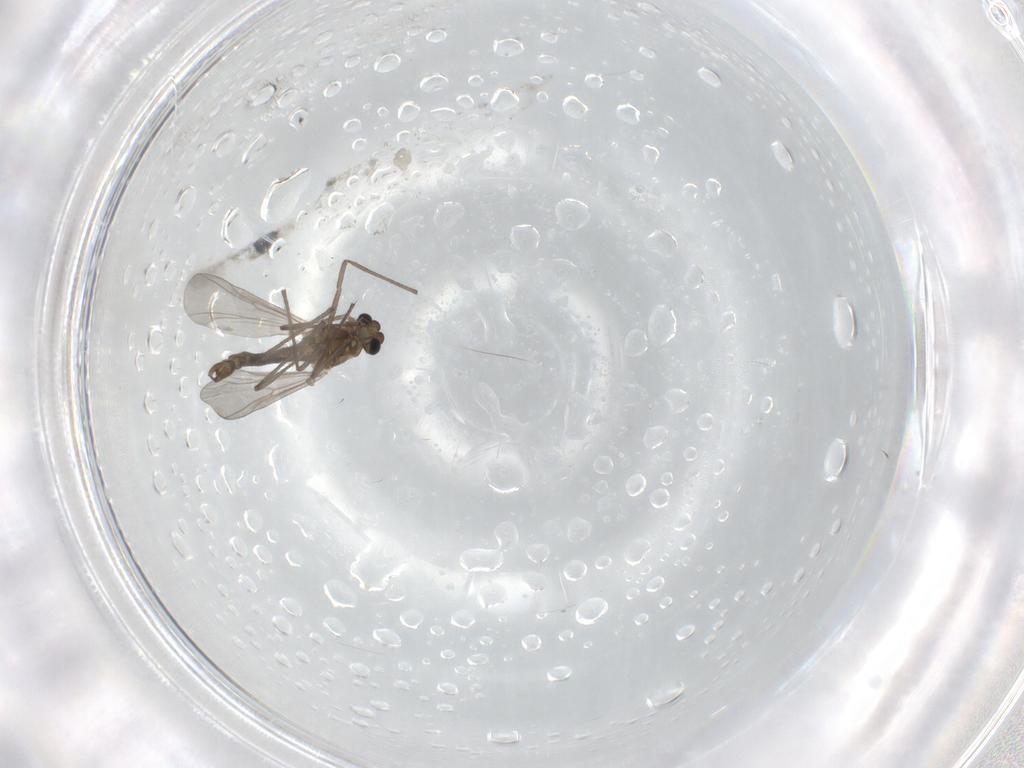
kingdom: Animalia
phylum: Arthropoda
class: Insecta
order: Diptera
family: Chironomidae
